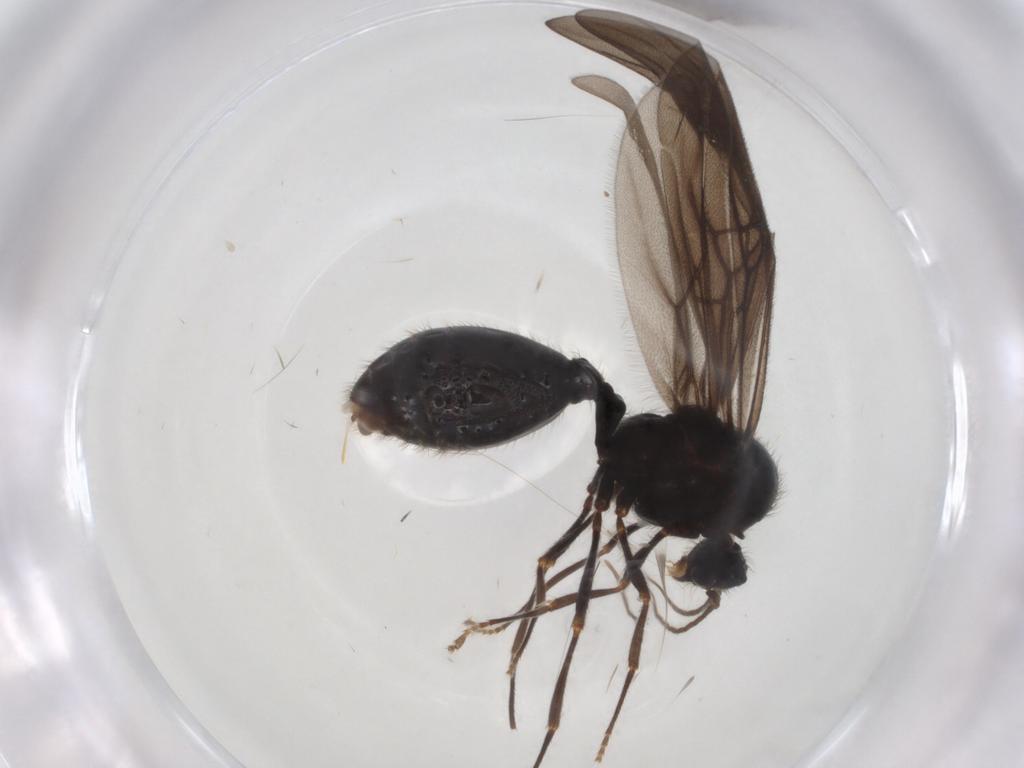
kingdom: Animalia
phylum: Arthropoda
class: Insecta
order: Hymenoptera
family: Formicidae
